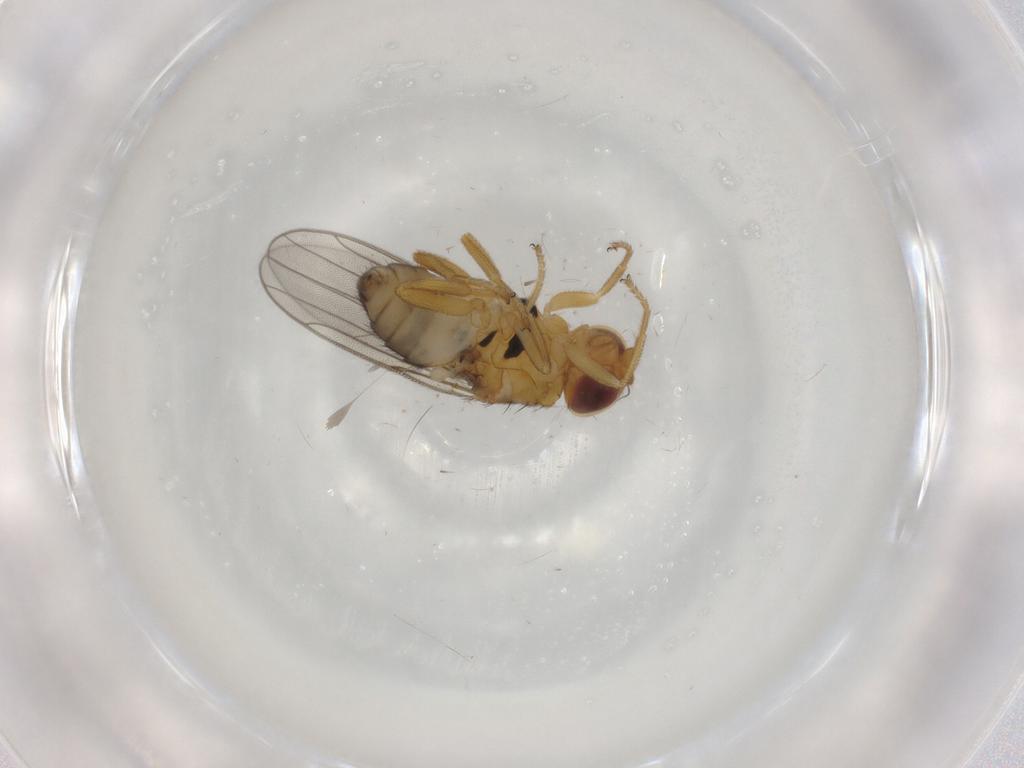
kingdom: Animalia
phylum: Arthropoda
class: Insecta
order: Diptera
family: Chloropidae
